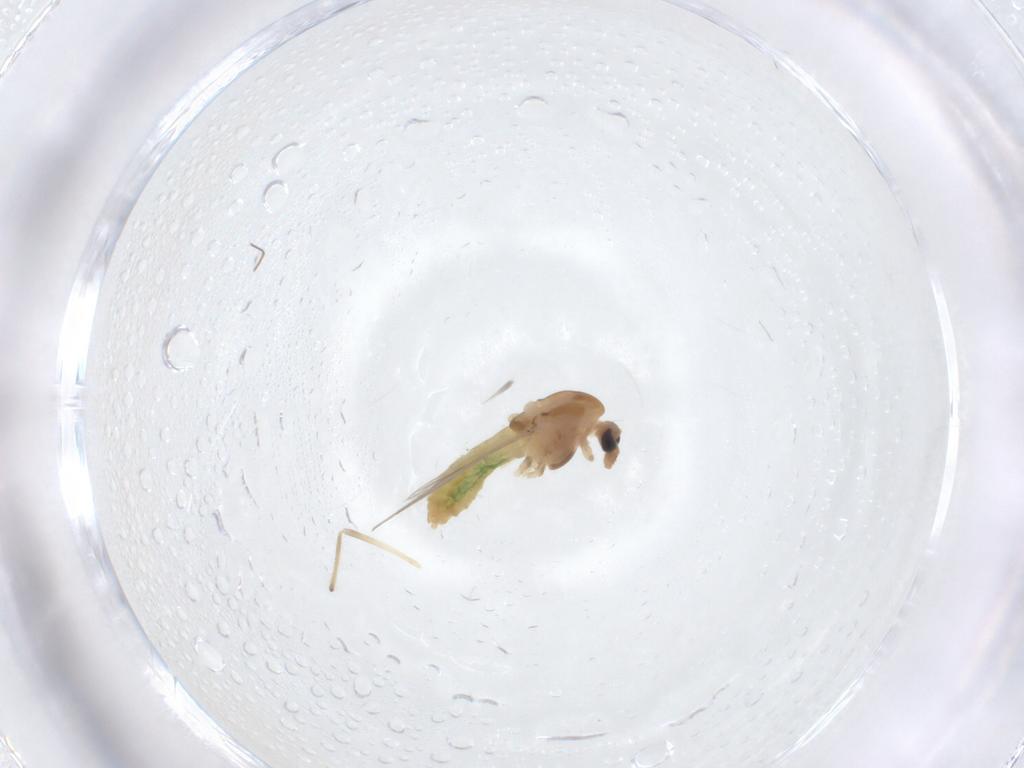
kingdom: Animalia
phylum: Arthropoda
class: Insecta
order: Diptera
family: Chironomidae
